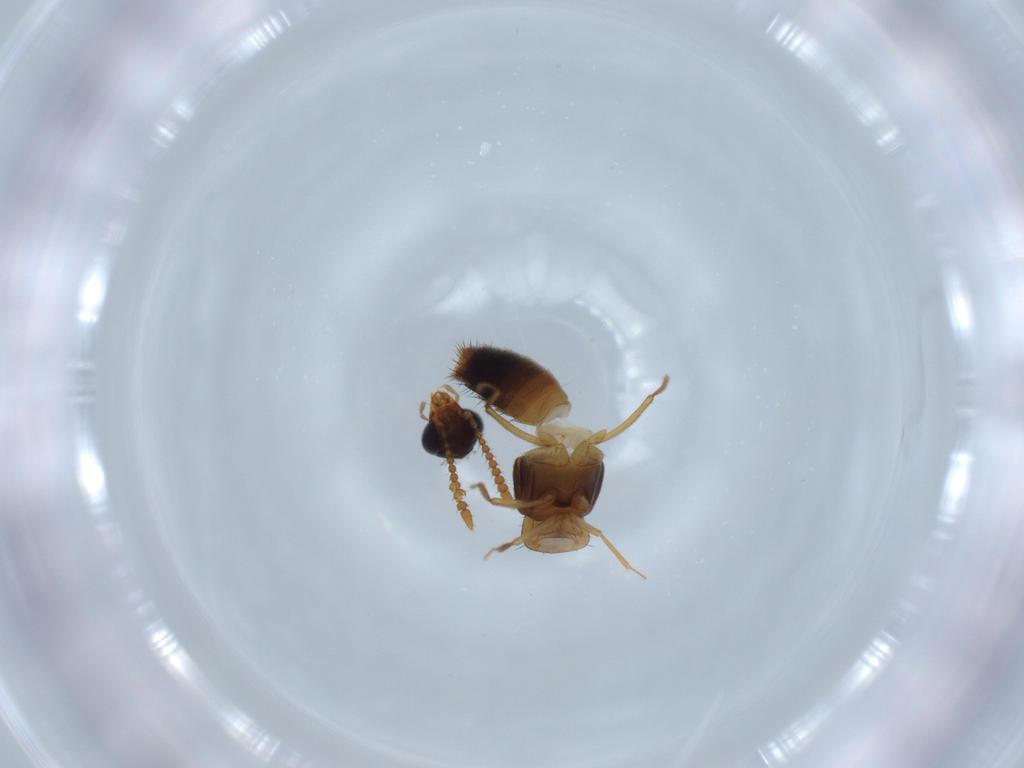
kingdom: Animalia
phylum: Arthropoda
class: Insecta
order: Coleoptera
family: Staphylinidae
